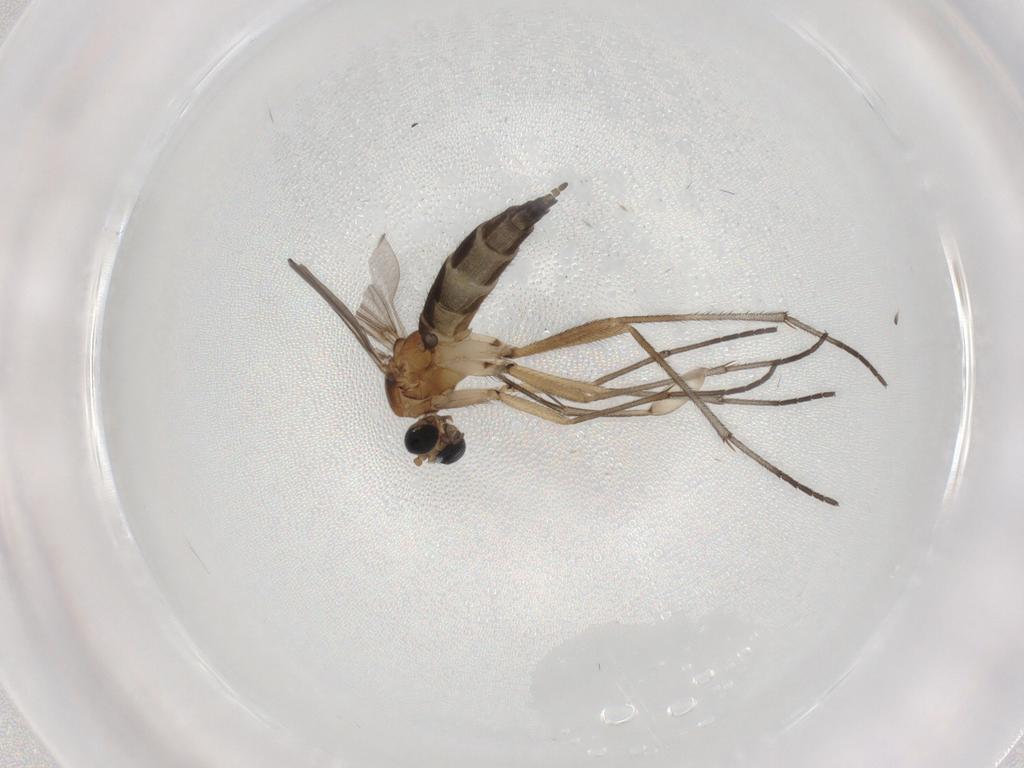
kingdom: Animalia
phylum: Arthropoda
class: Insecta
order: Diptera
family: Sciaridae
